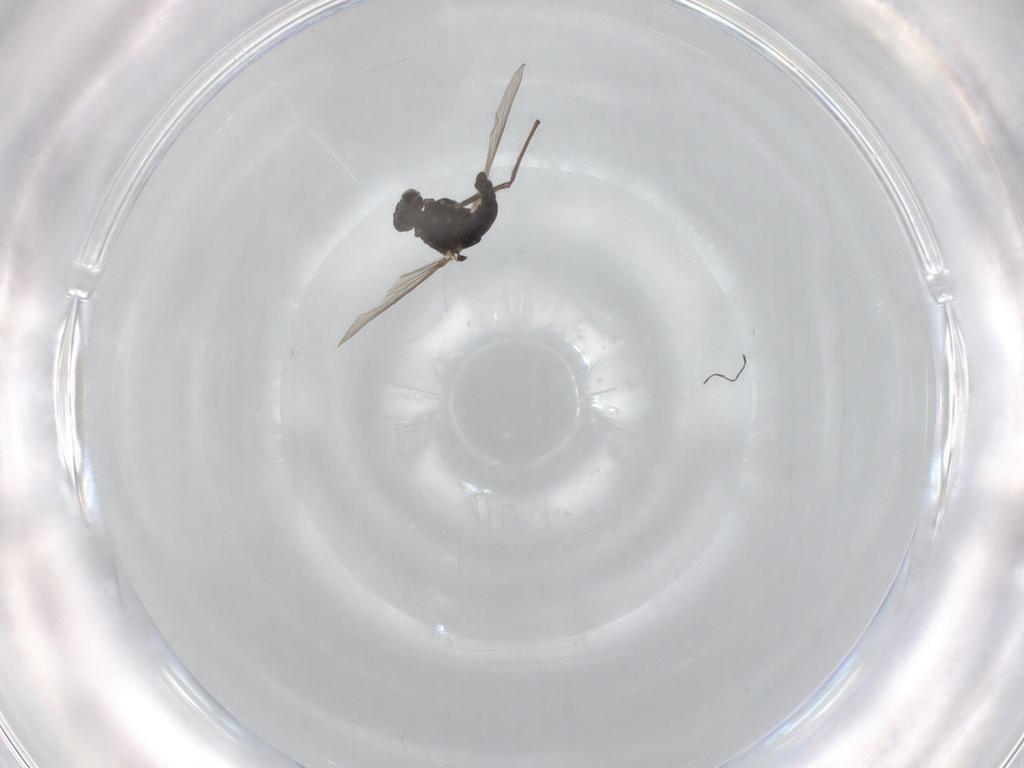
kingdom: Animalia
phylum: Arthropoda
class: Insecta
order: Diptera
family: Chironomidae
